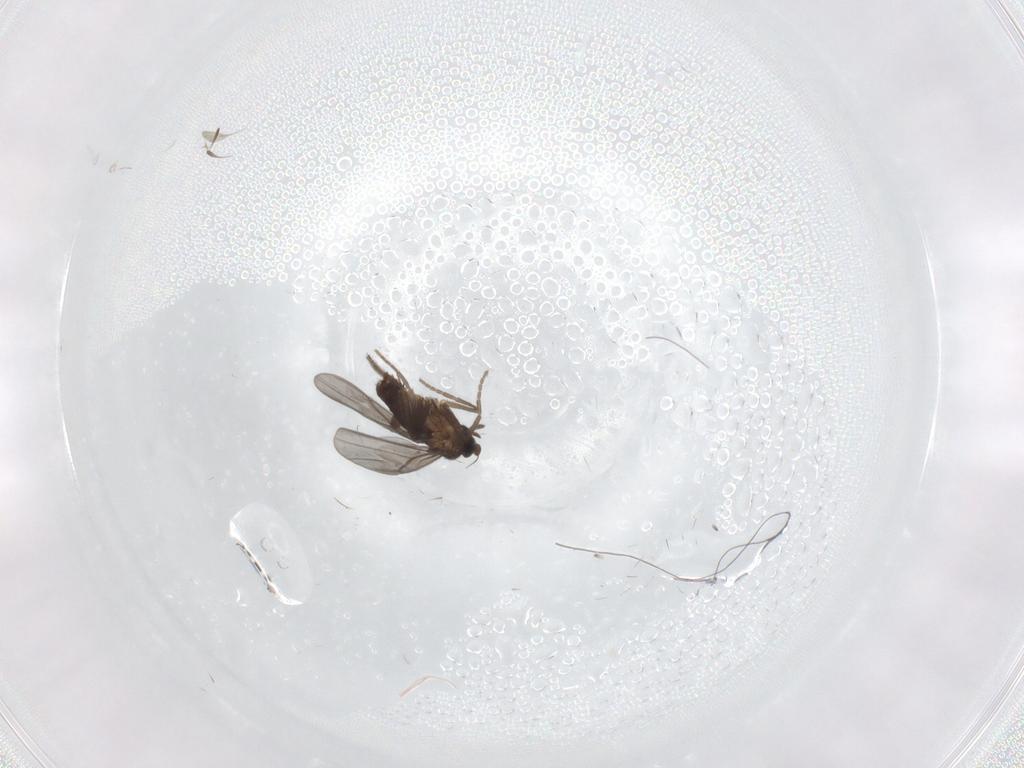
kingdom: Animalia
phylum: Arthropoda
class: Insecta
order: Diptera
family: Phoridae
